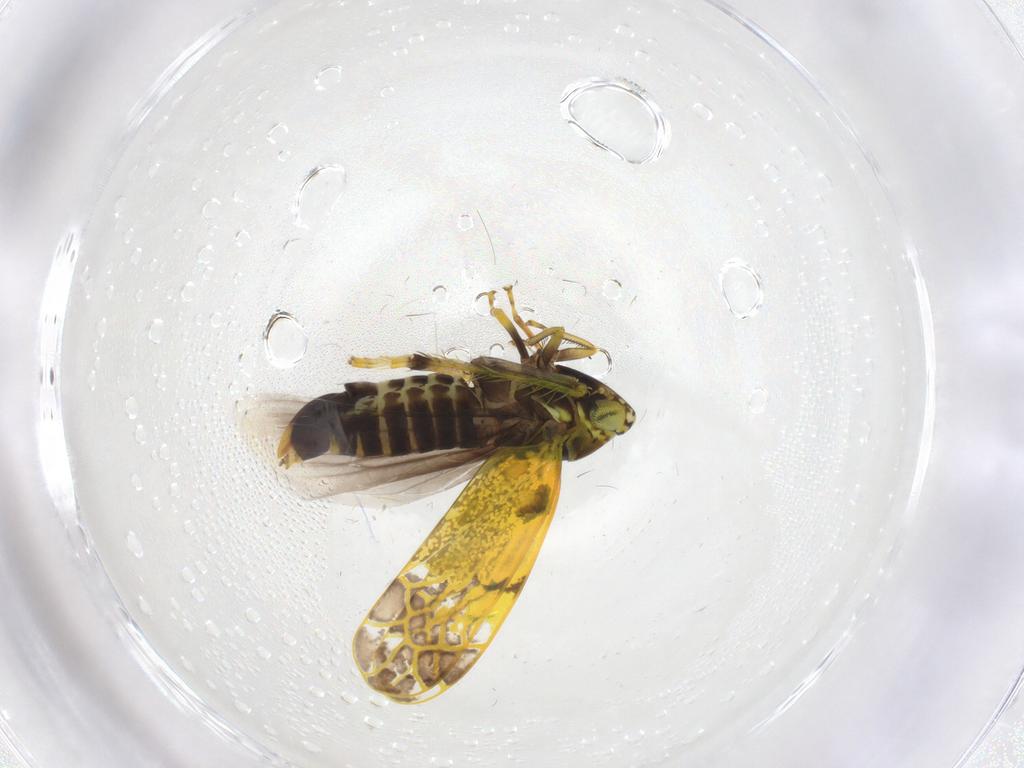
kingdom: Animalia
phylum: Arthropoda
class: Insecta
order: Hemiptera
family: Cicadellidae
